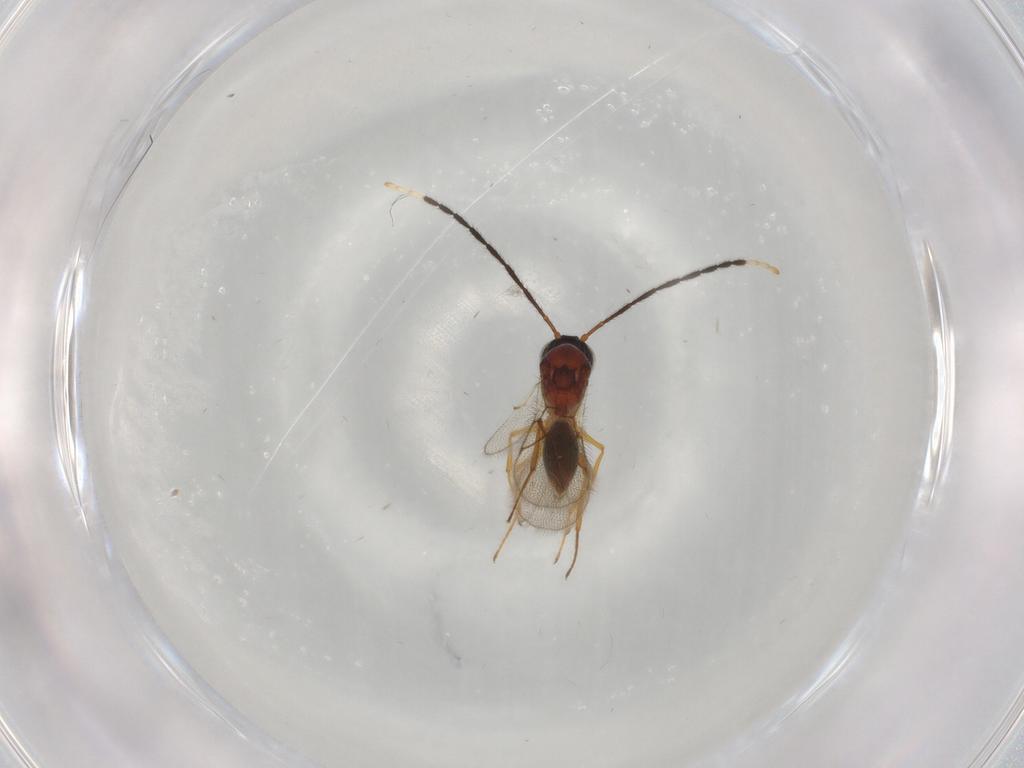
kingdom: Animalia
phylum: Arthropoda
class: Insecta
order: Hymenoptera
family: Figitidae
